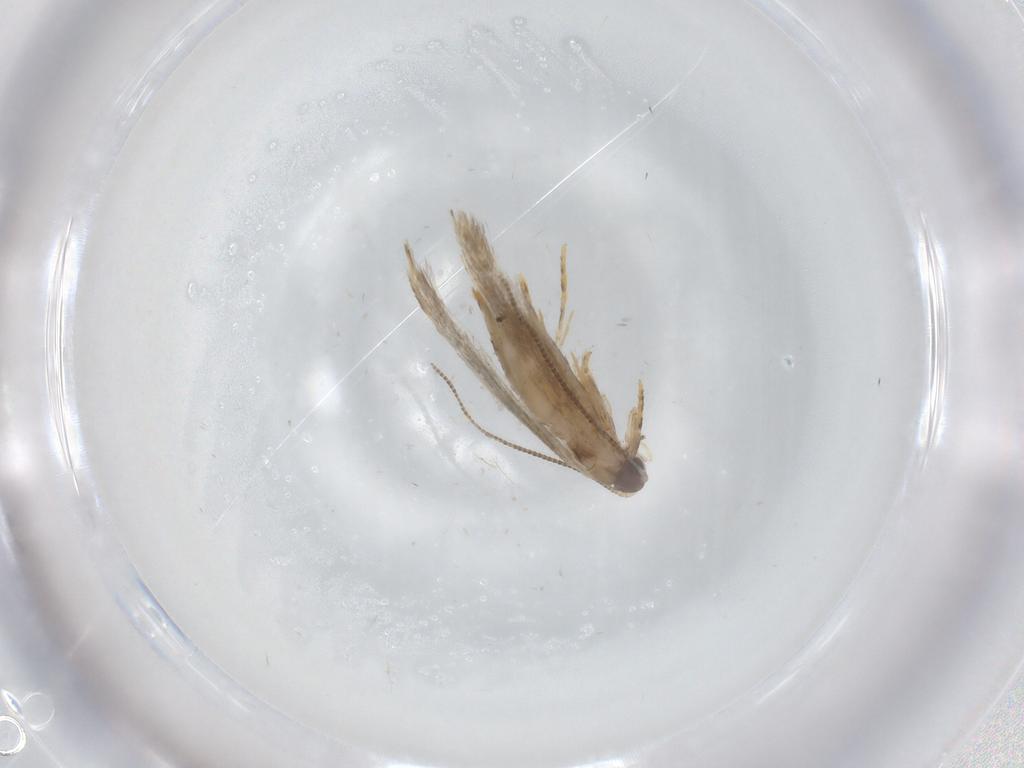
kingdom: Animalia
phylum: Arthropoda
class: Insecta
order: Lepidoptera
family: Tineidae
